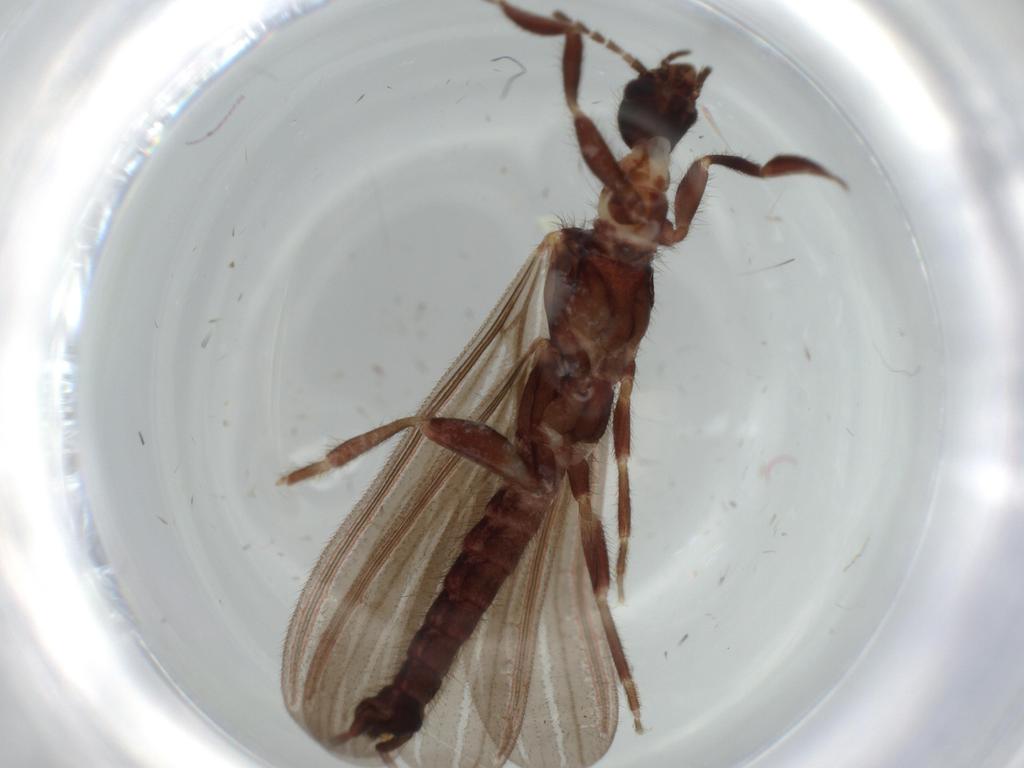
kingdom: Animalia
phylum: Arthropoda
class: Insecta
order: Embioptera
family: Anisembiidae
